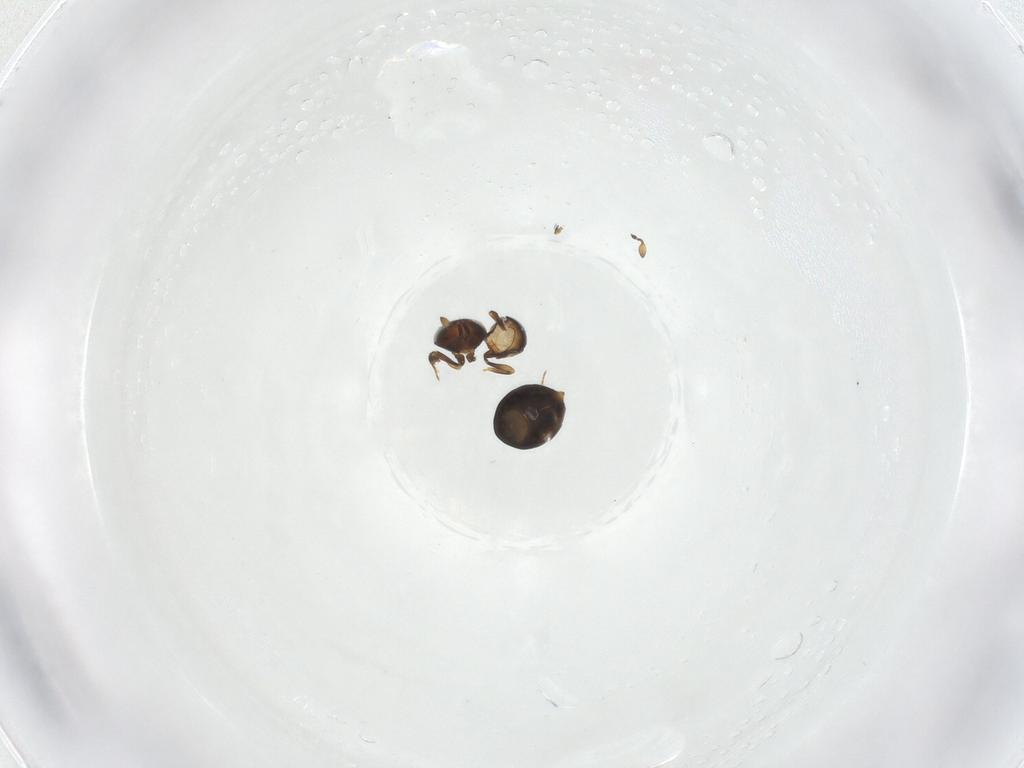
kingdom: Animalia
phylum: Arthropoda
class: Insecta
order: Hymenoptera
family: Scelionidae
